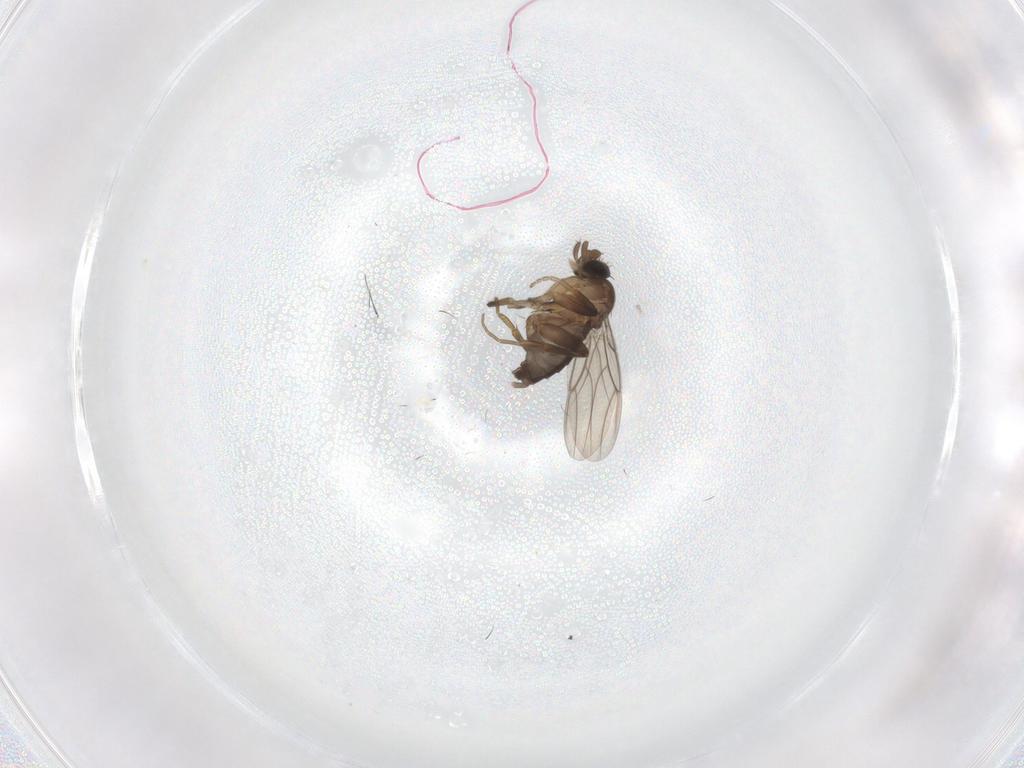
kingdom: Animalia
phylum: Arthropoda
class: Insecta
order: Diptera
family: Phoridae
